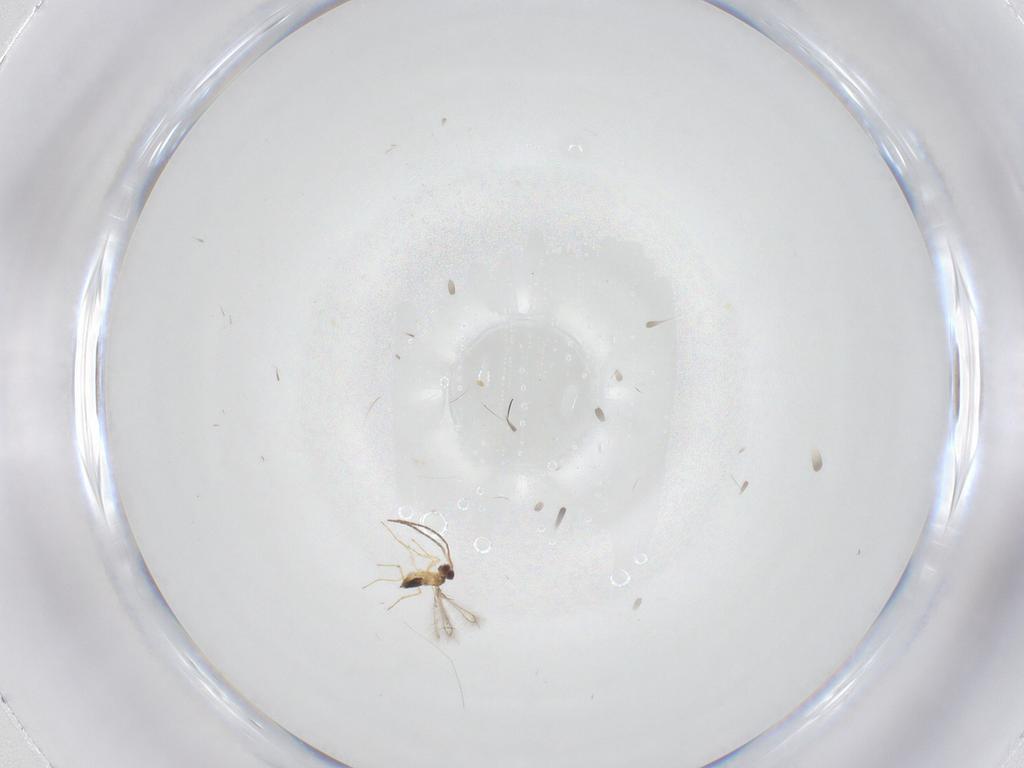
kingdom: Animalia
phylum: Arthropoda
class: Insecta
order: Hymenoptera
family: Mymaridae
